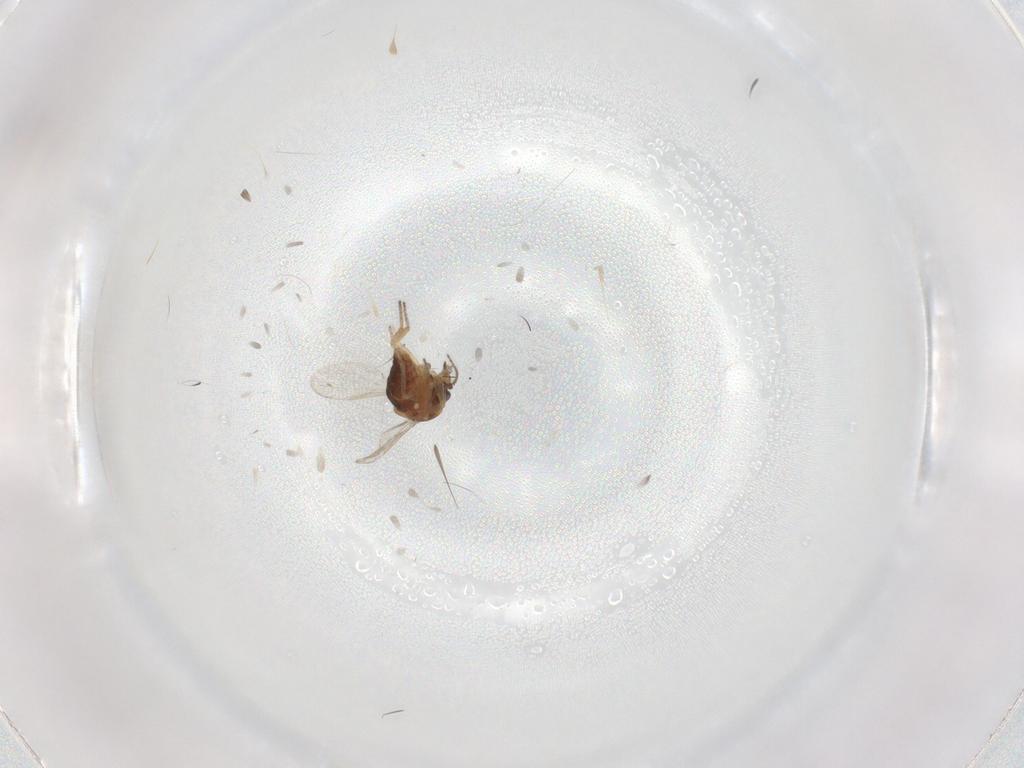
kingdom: Animalia
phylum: Arthropoda
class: Insecta
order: Diptera
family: Ceratopogonidae
